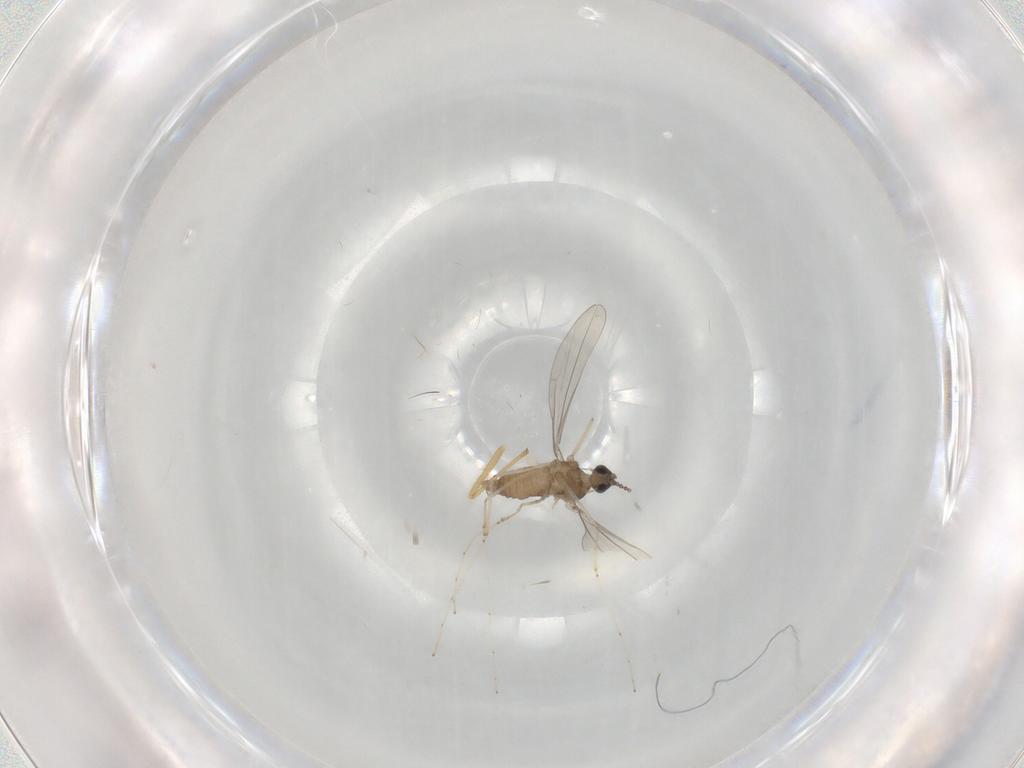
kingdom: Animalia
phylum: Arthropoda
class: Insecta
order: Diptera
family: Cecidomyiidae
